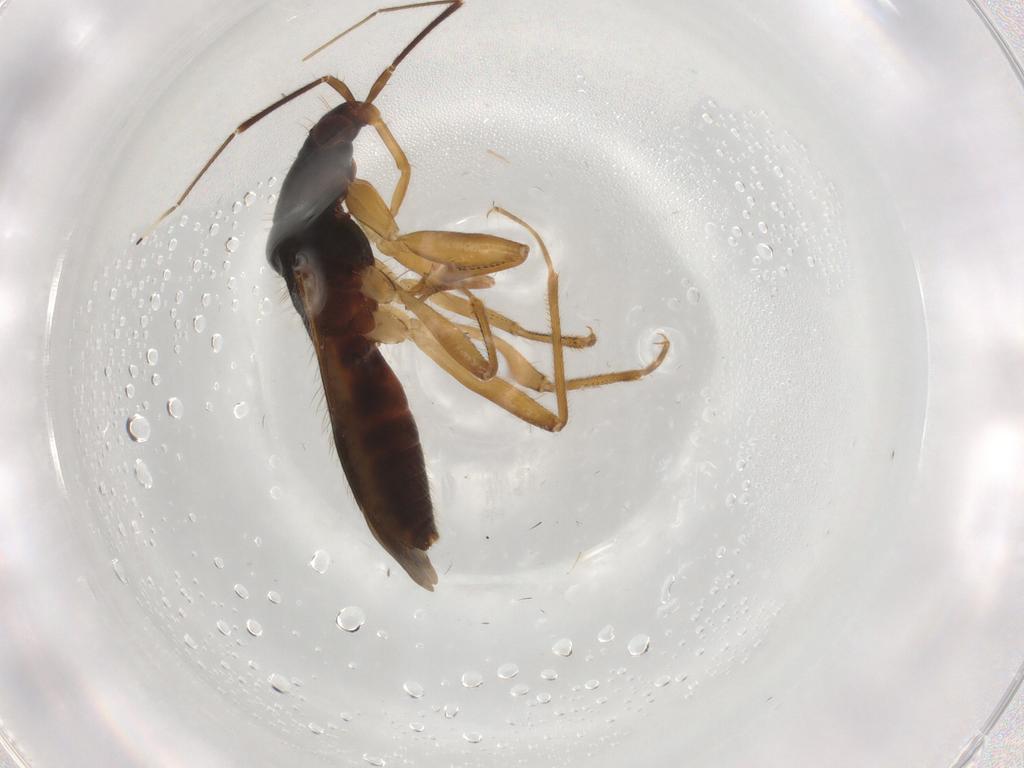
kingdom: Animalia
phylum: Arthropoda
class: Insecta
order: Hemiptera
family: Nabidae
